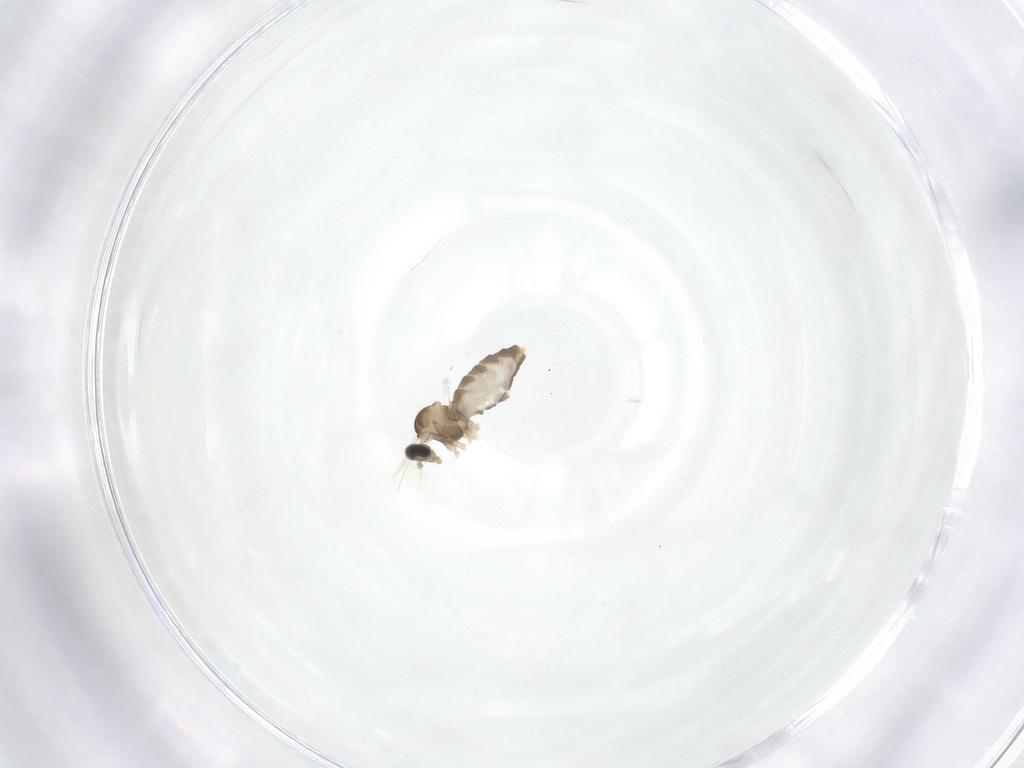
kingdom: Animalia
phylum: Arthropoda
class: Insecta
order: Diptera
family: Cecidomyiidae
